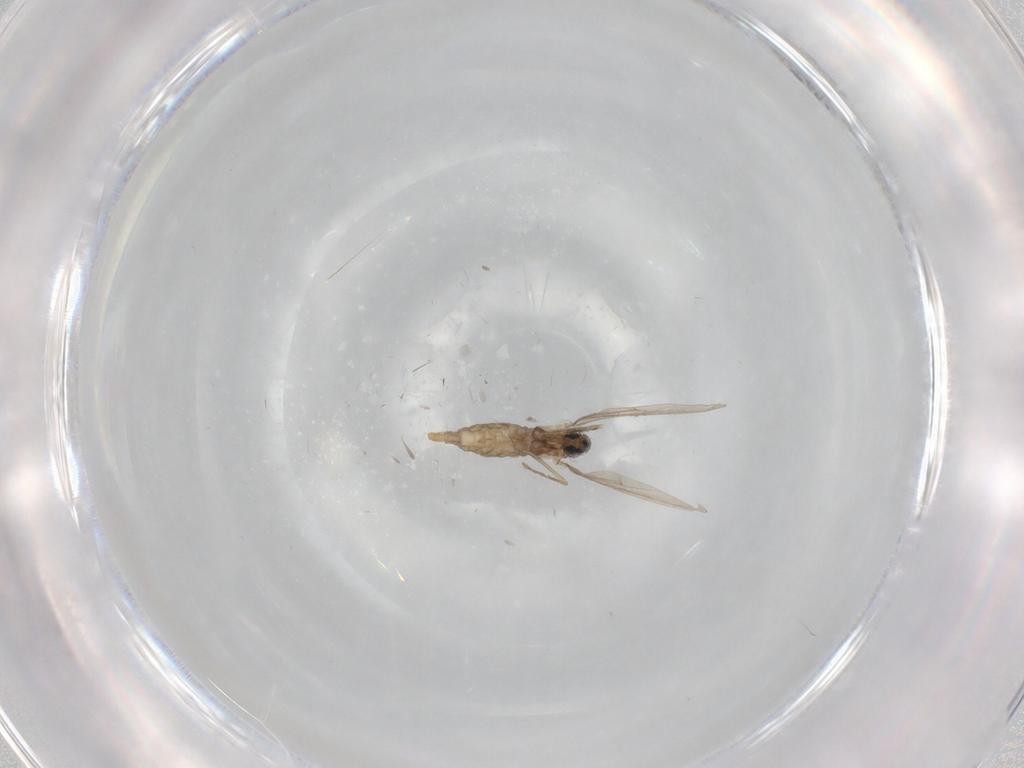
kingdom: Animalia
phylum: Arthropoda
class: Insecta
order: Diptera
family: Cecidomyiidae
